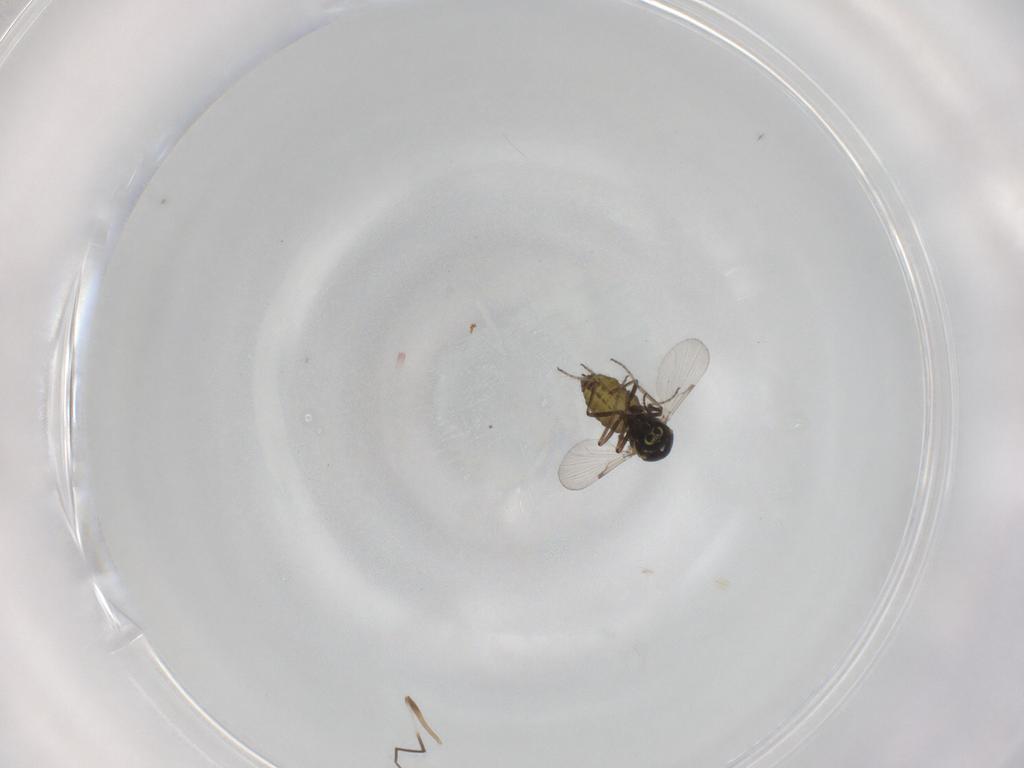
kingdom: Animalia
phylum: Arthropoda
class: Insecta
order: Diptera
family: Ceratopogonidae
